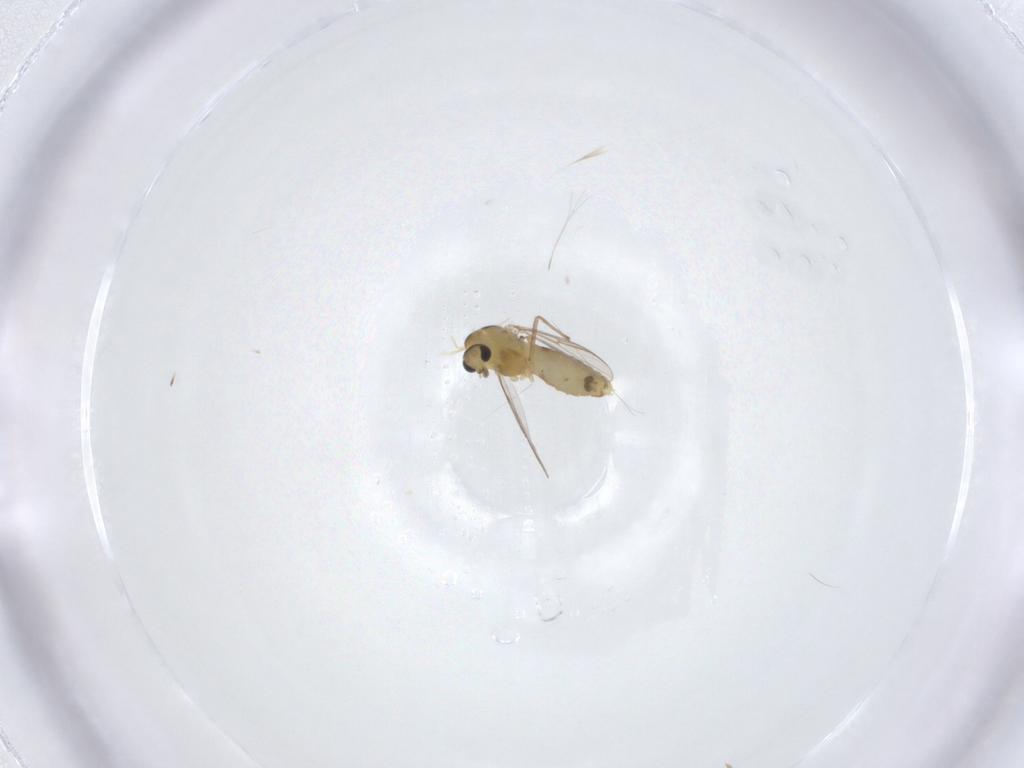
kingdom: Animalia
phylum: Arthropoda
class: Insecta
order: Diptera
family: Chironomidae
